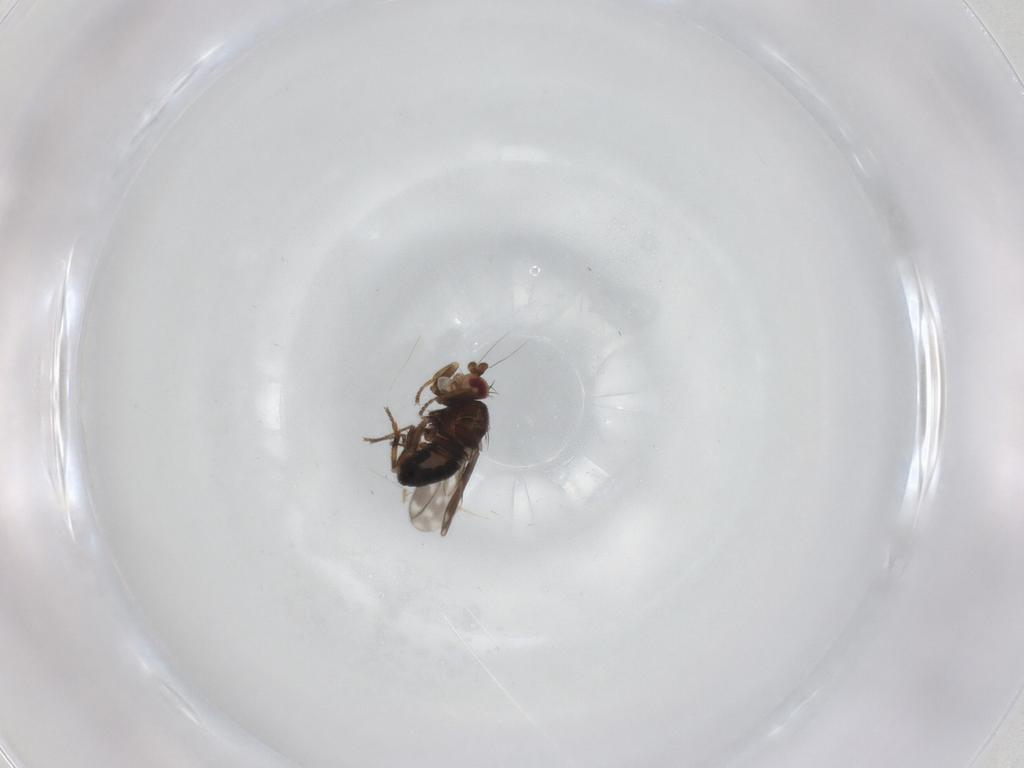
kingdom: Animalia
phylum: Arthropoda
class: Insecta
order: Diptera
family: Sphaeroceridae
